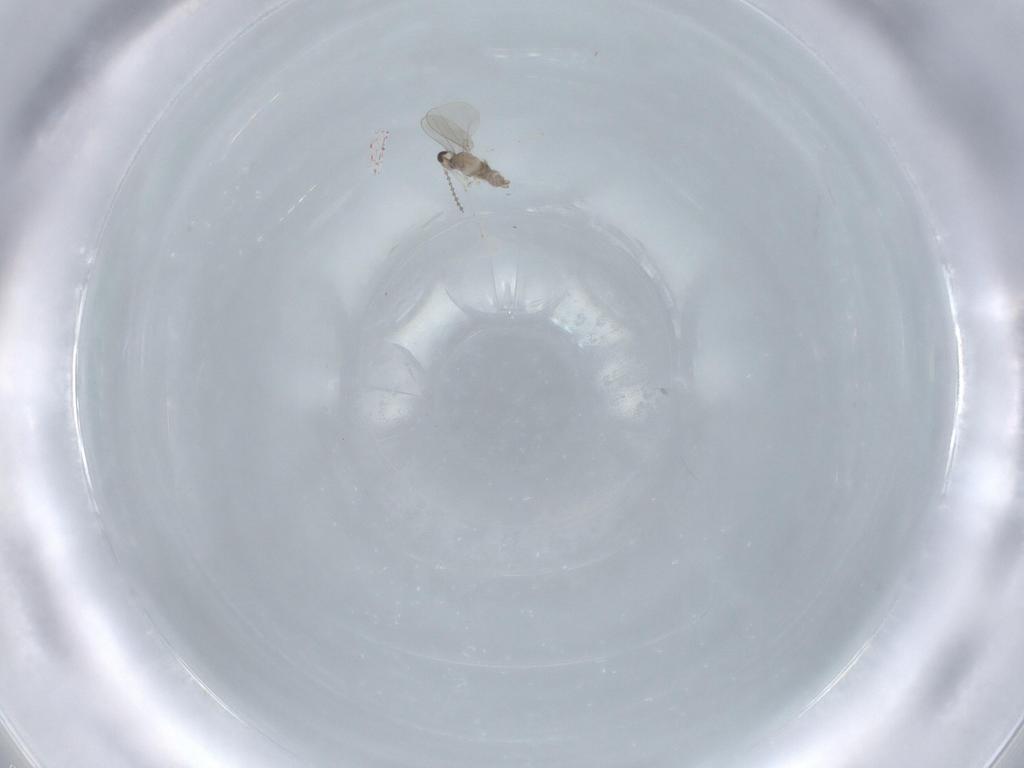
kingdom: Animalia
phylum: Arthropoda
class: Insecta
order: Diptera
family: Cecidomyiidae
